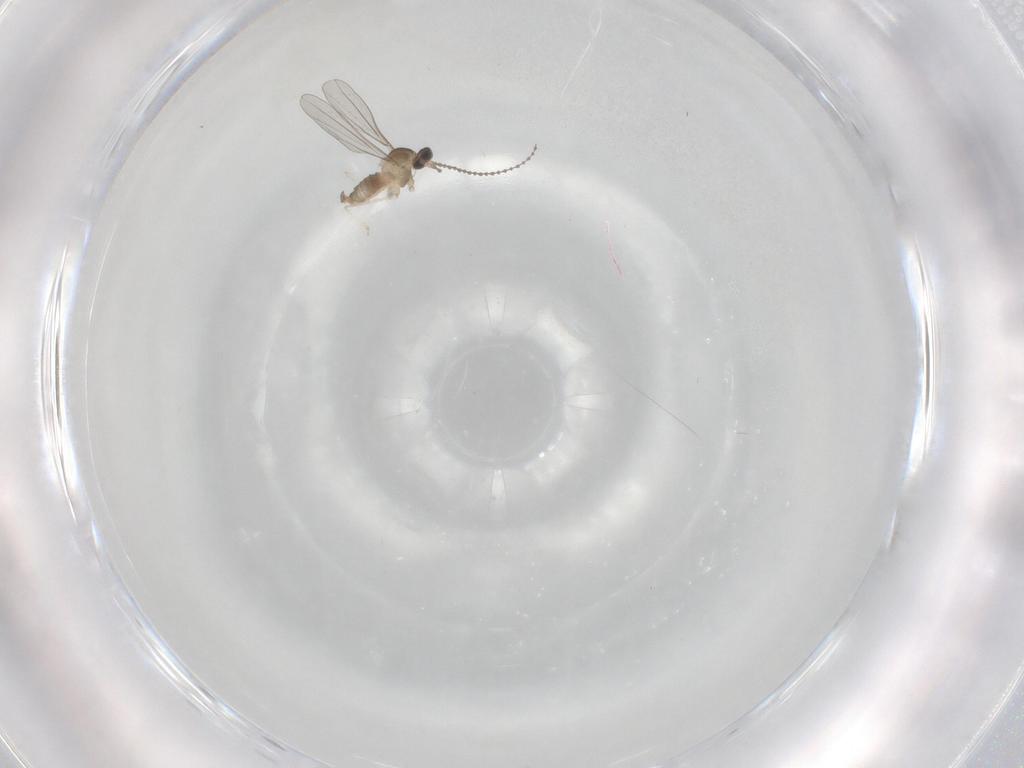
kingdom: Animalia
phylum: Arthropoda
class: Insecta
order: Diptera
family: Cecidomyiidae
